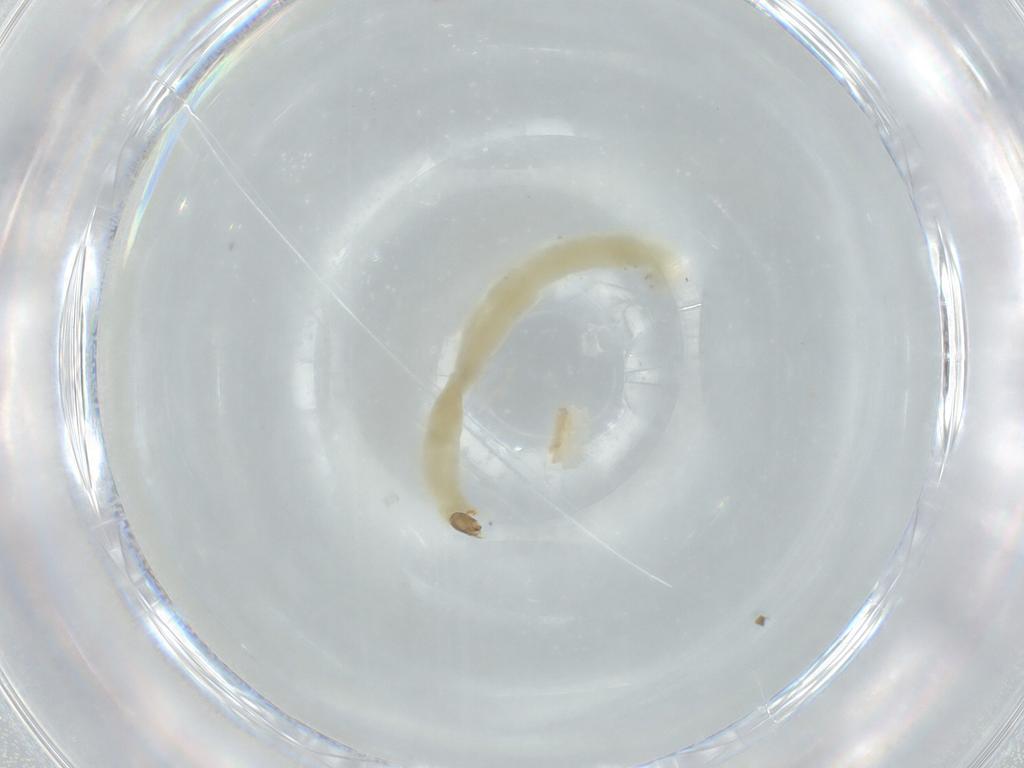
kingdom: Animalia
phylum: Arthropoda
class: Insecta
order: Diptera
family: Chironomidae
